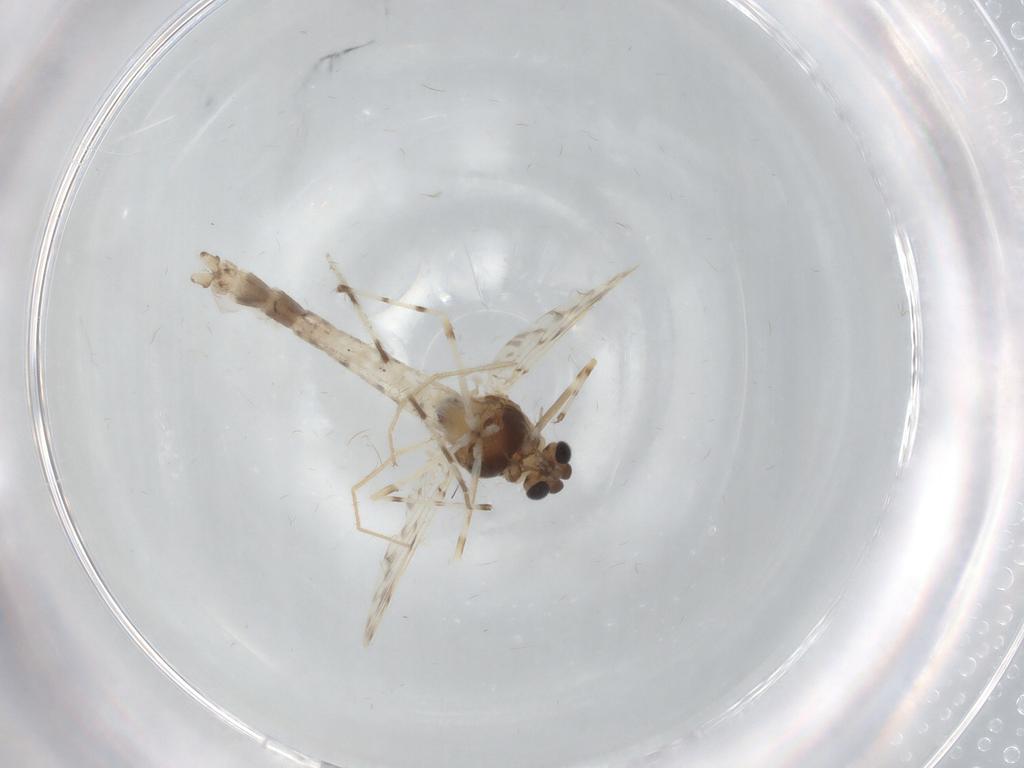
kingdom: Animalia
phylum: Arthropoda
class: Insecta
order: Diptera
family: Chironomidae
